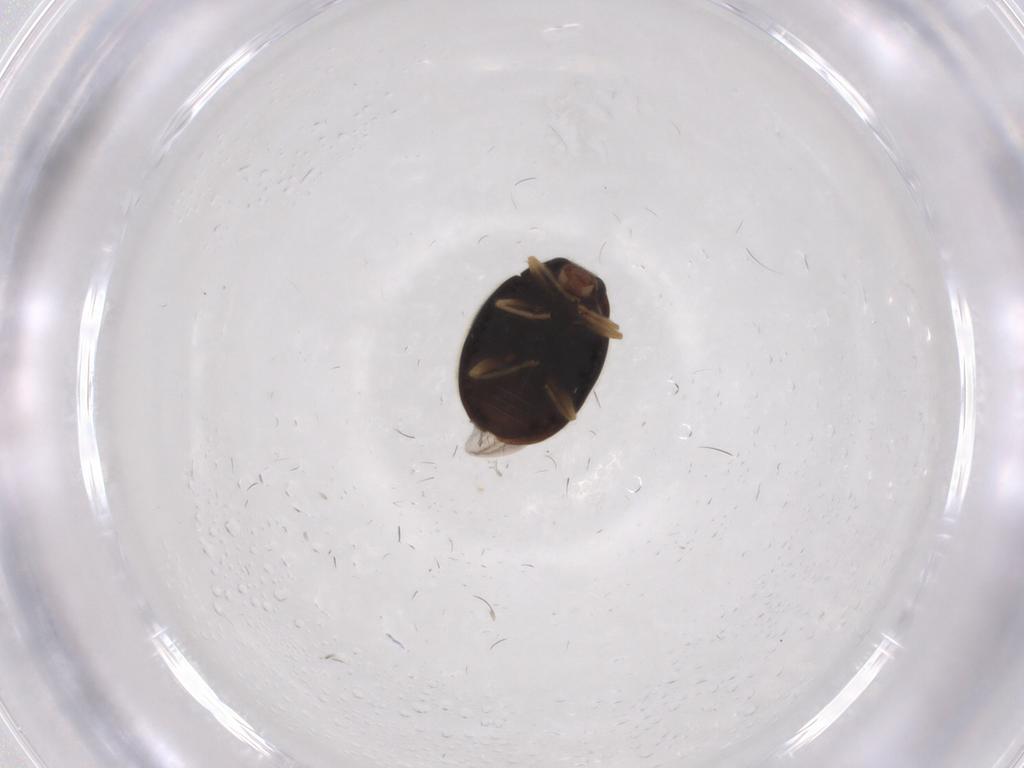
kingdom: Animalia
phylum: Arthropoda
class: Insecta
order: Coleoptera
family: Coccinellidae
